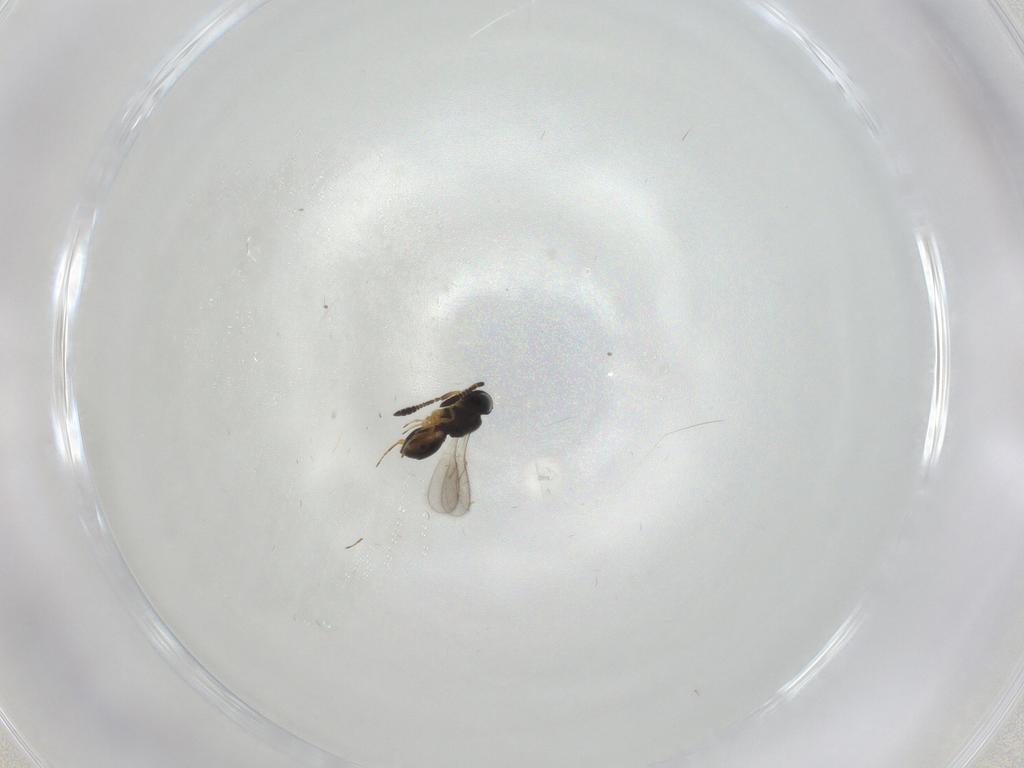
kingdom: Animalia
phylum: Arthropoda
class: Insecta
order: Hymenoptera
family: Scelionidae
